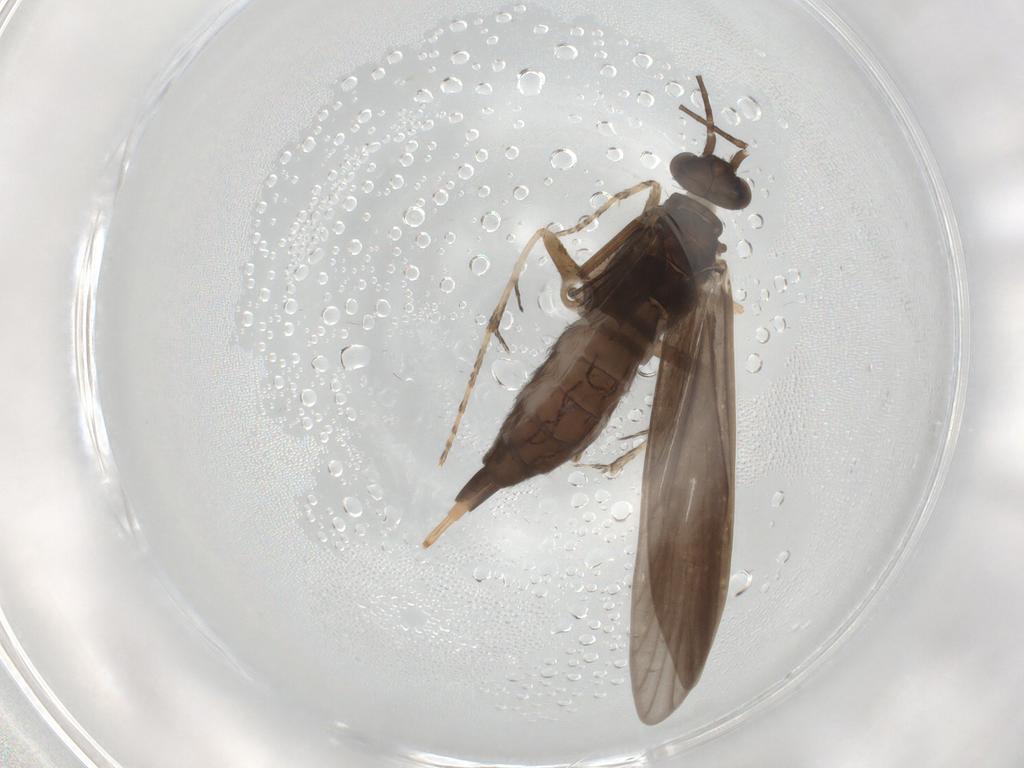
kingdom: Animalia
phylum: Arthropoda
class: Insecta
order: Trichoptera
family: Xiphocentronidae
